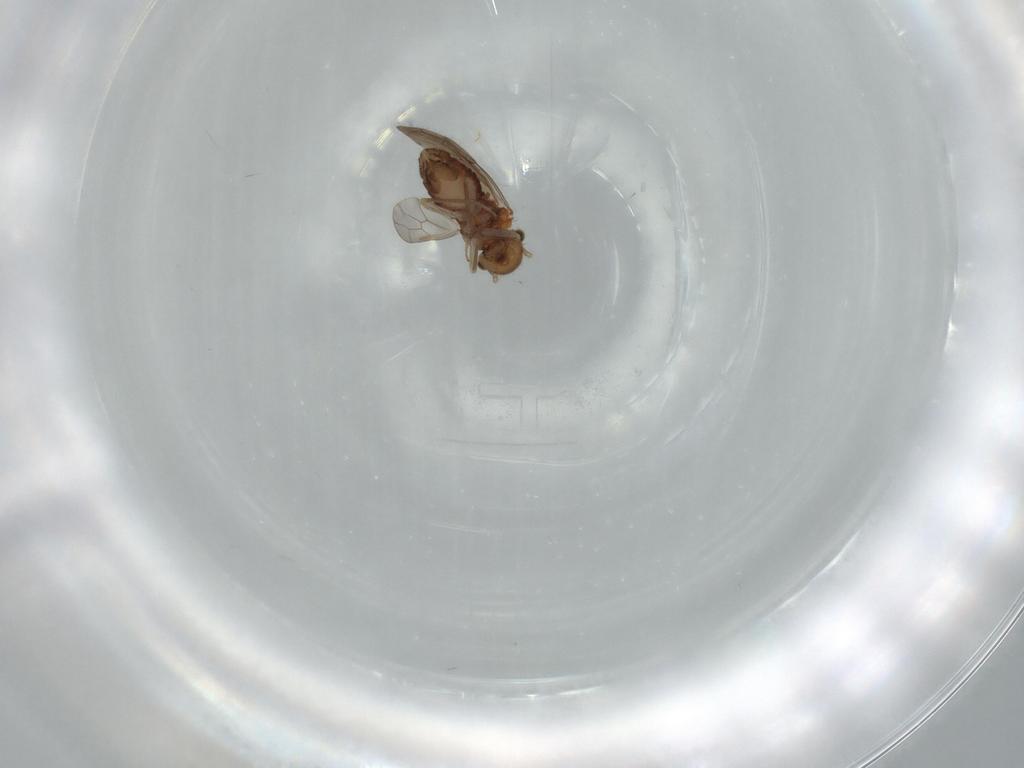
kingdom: Animalia
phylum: Arthropoda
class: Insecta
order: Psocodea
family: Ectopsocidae
